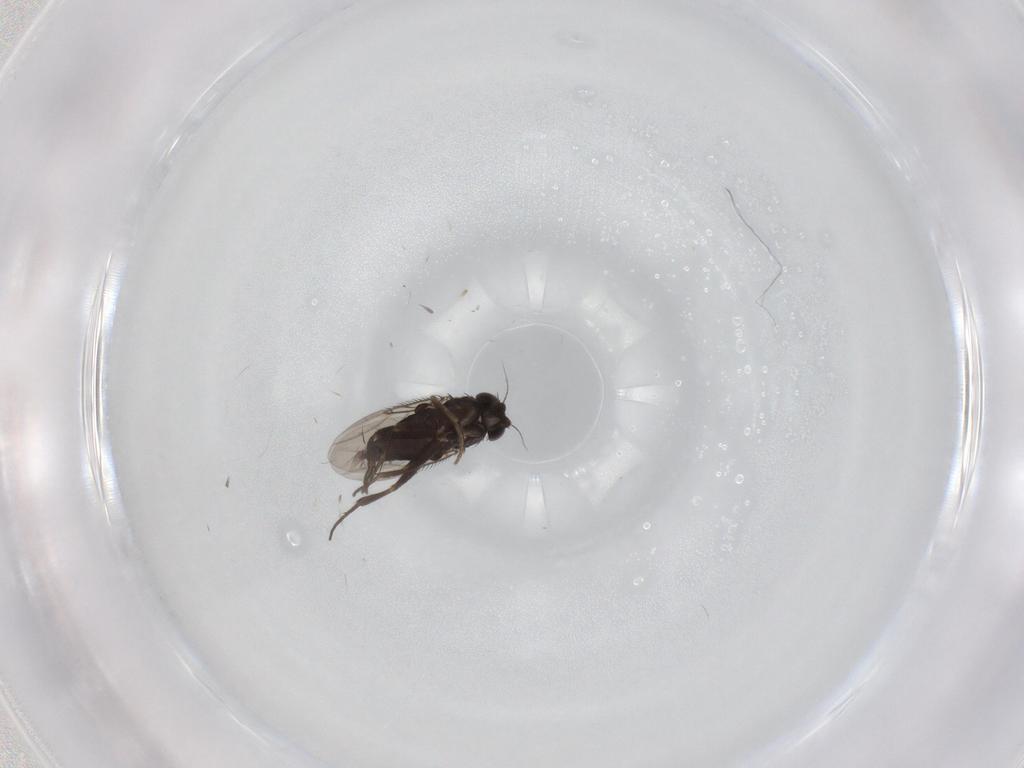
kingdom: Animalia
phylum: Arthropoda
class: Insecta
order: Diptera
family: Phoridae
